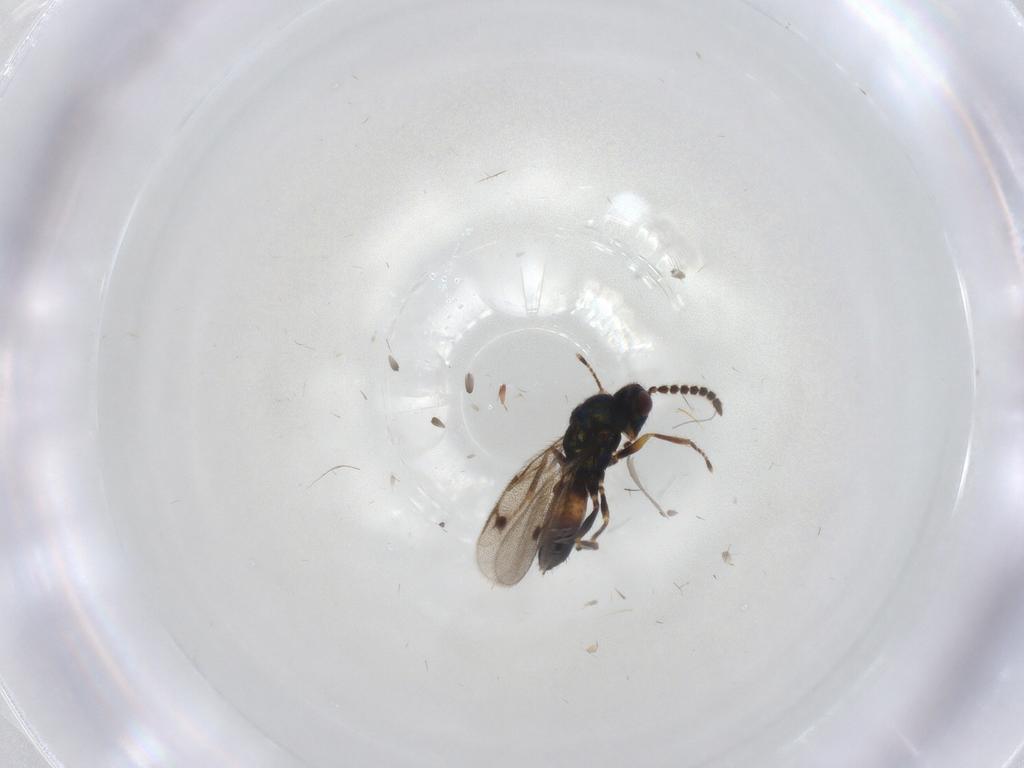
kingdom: Animalia
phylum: Arthropoda
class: Insecta
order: Hymenoptera
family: Pirenidae
